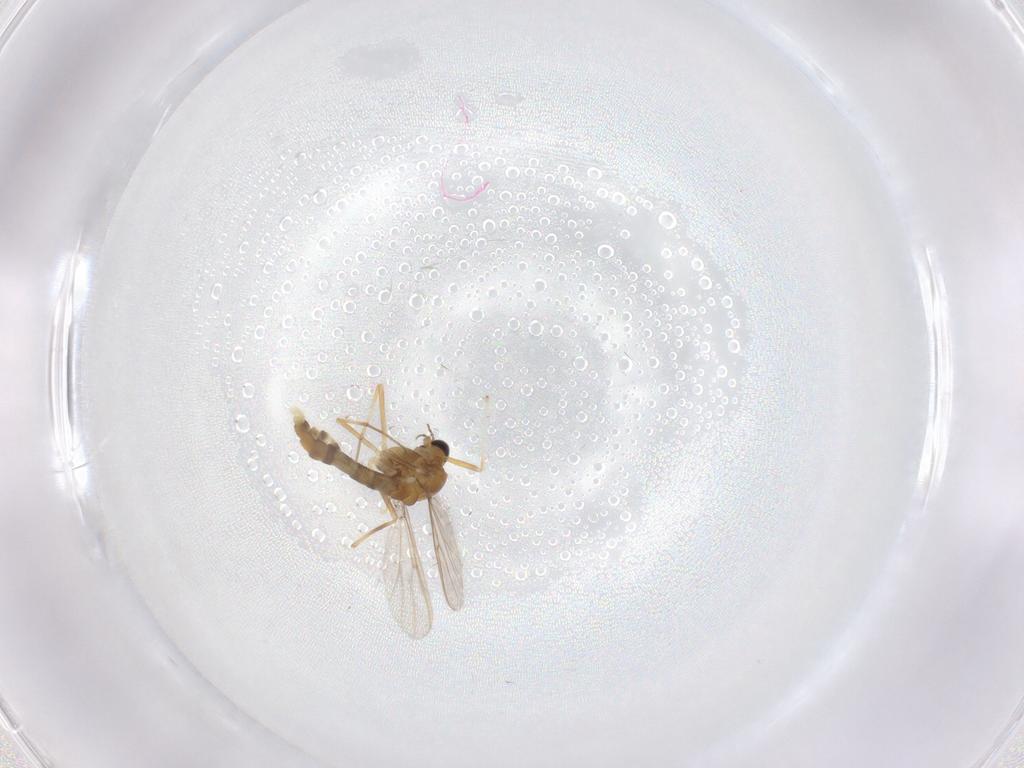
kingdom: Animalia
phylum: Arthropoda
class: Insecta
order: Diptera
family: Chironomidae
